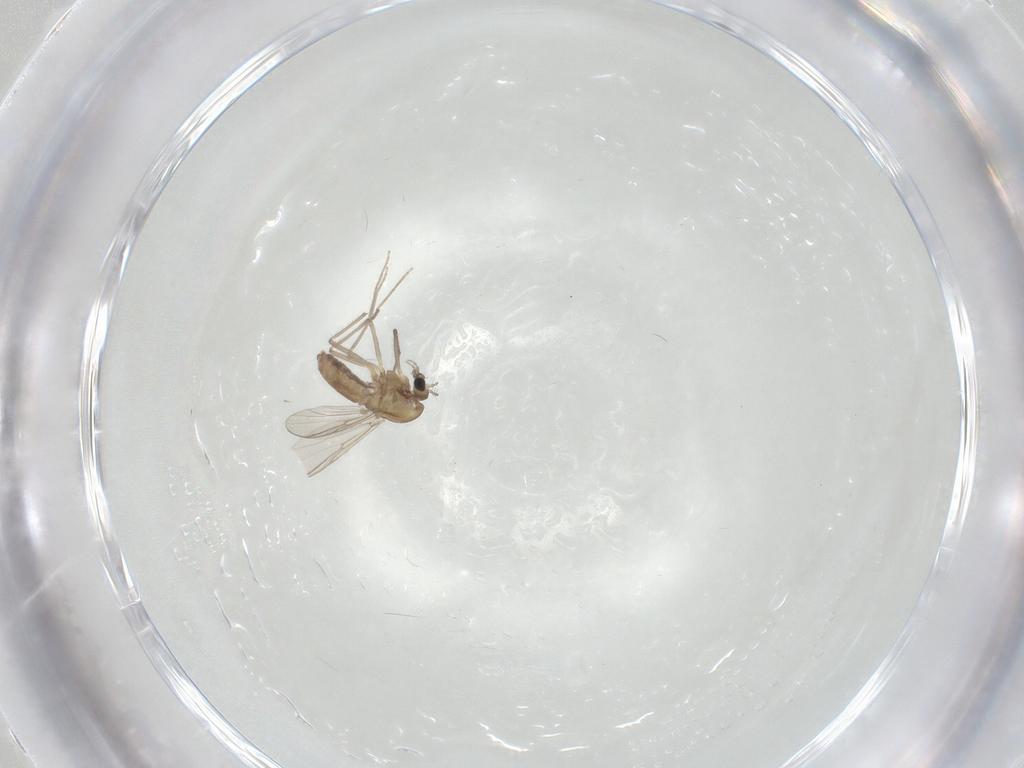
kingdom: Animalia
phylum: Arthropoda
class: Insecta
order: Diptera
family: Chironomidae
